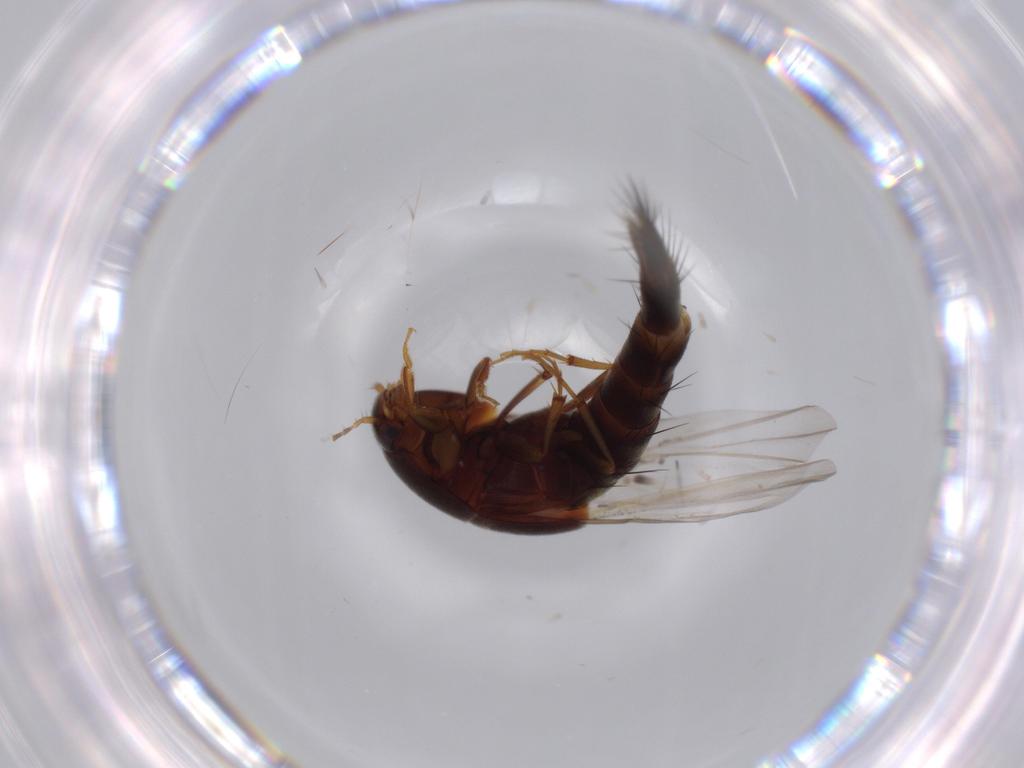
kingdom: Animalia
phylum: Arthropoda
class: Insecta
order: Coleoptera
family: Staphylinidae
